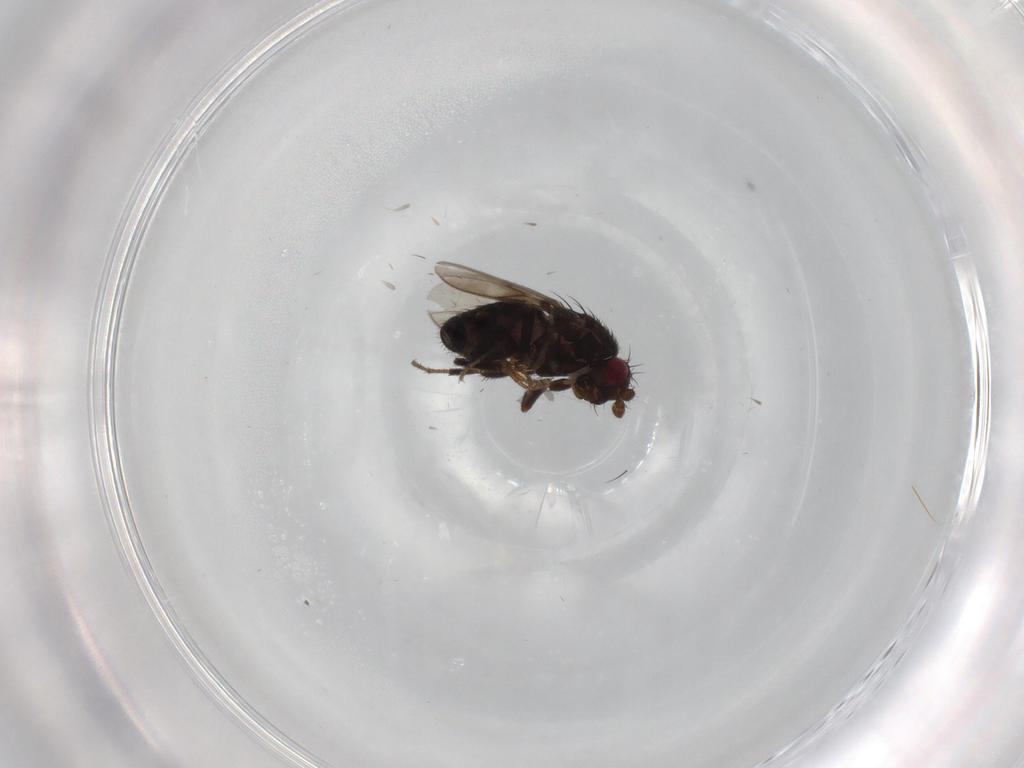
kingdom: Animalia
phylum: Arthropoda
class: Insecta
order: Diptera
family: Sphaeroceridae
